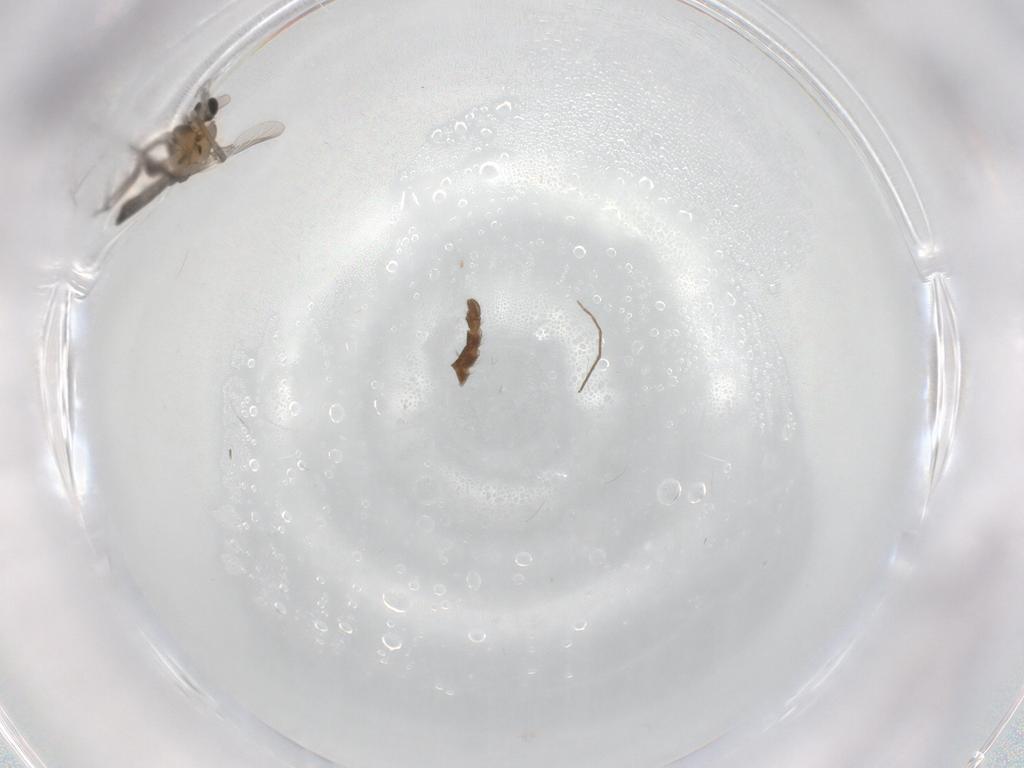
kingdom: Animalia
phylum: Arthropoda
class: Insecta
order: Diptera
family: Chironomidae
